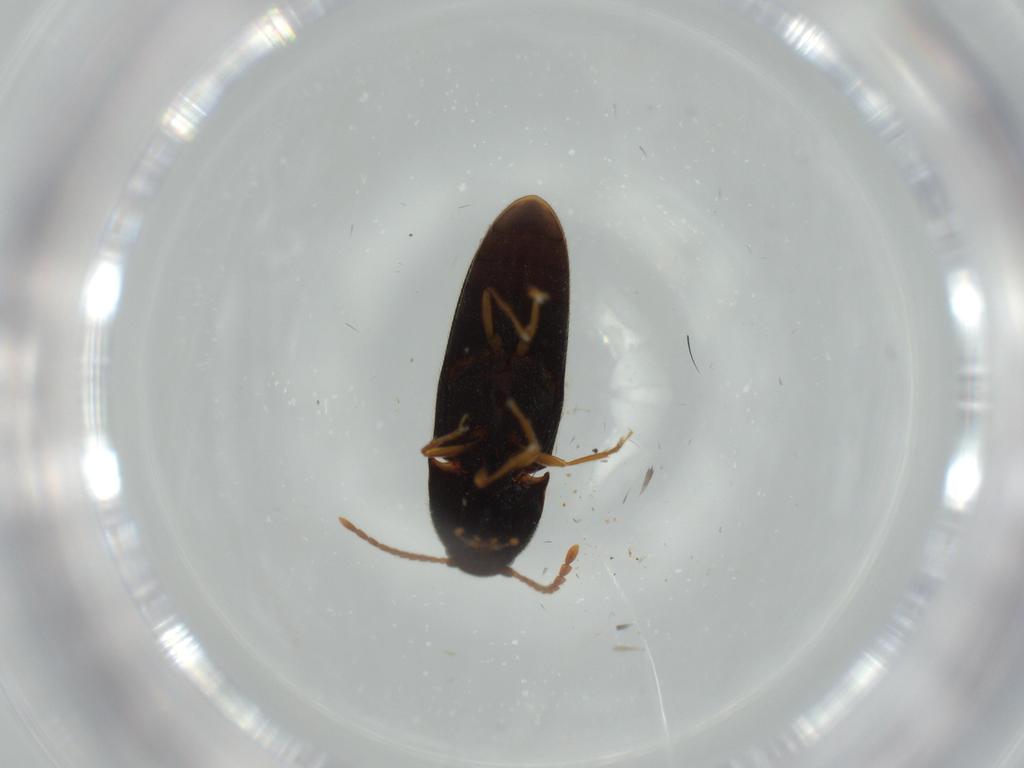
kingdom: Animalia
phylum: Arthropoda
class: Insecta
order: Coleoptera
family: Elateridae
